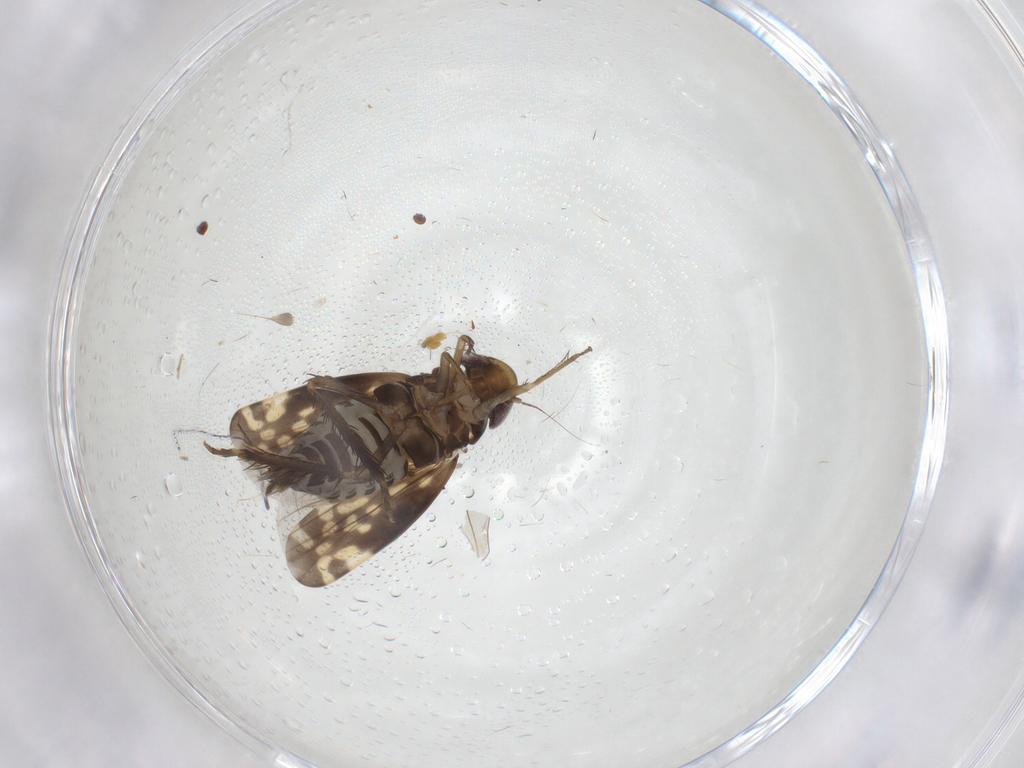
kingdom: Animalia
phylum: Arthropoda
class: Insecta
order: Hemiptera
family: Cicadellidae
